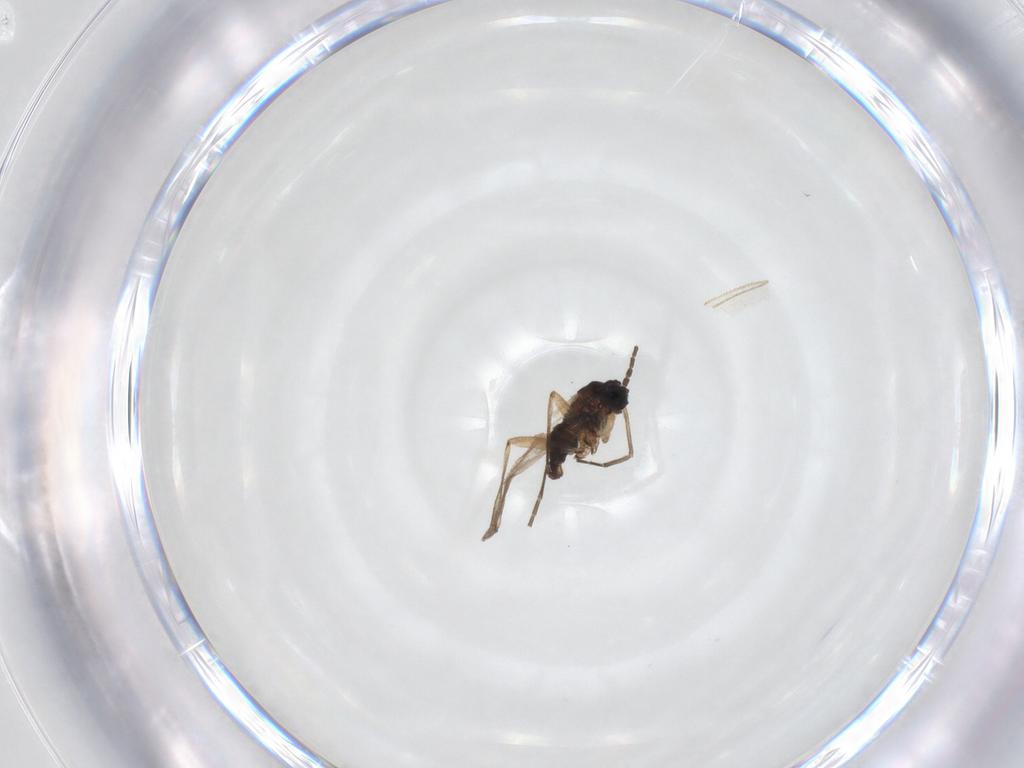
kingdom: Animalia
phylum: Arthropoda
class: Insecta
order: Diptera
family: Sciaridae
